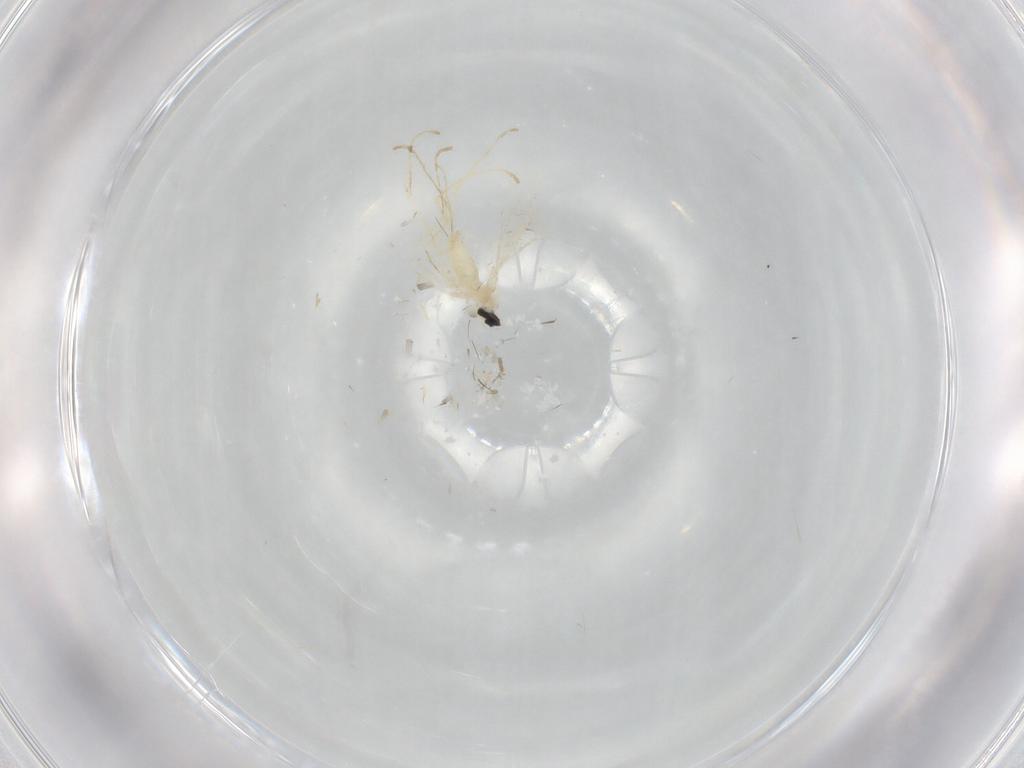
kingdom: Animalia
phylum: Arthropoda
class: Insecta
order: Diptera
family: Cecidomyiidae
